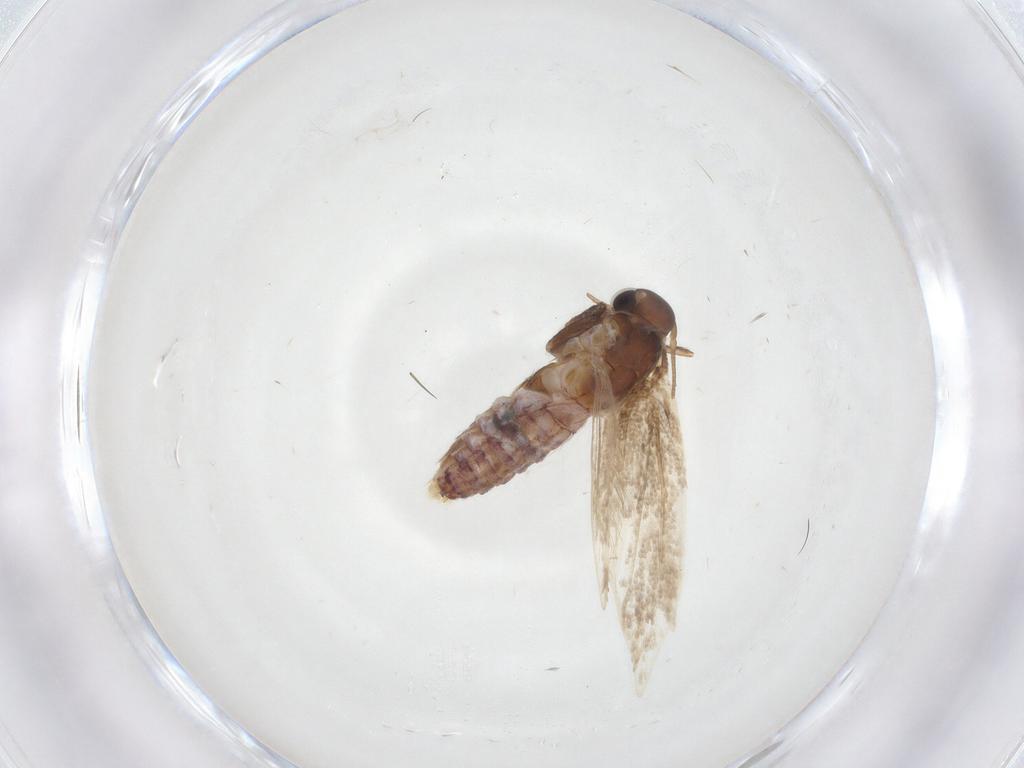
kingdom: Animalia
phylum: Arthropoda
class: Insecta
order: Lepidoptera
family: Cosmopterigidae
